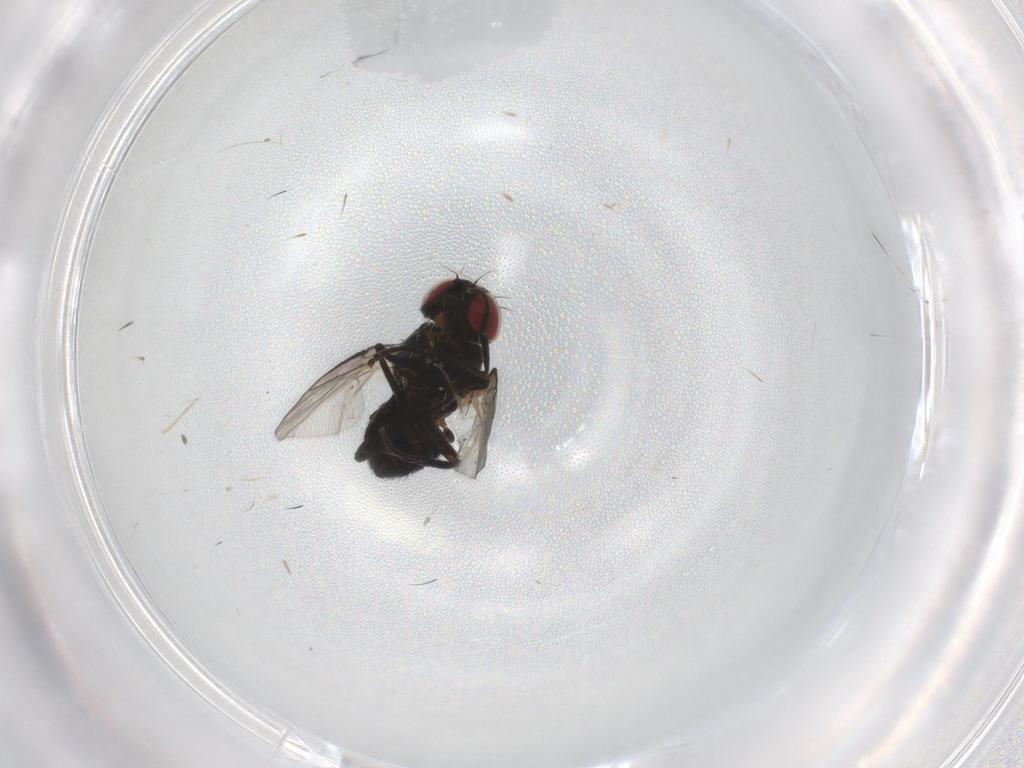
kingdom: Animalia
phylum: Arthropoda
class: Insecta
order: Diptera
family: Agromyzidae
